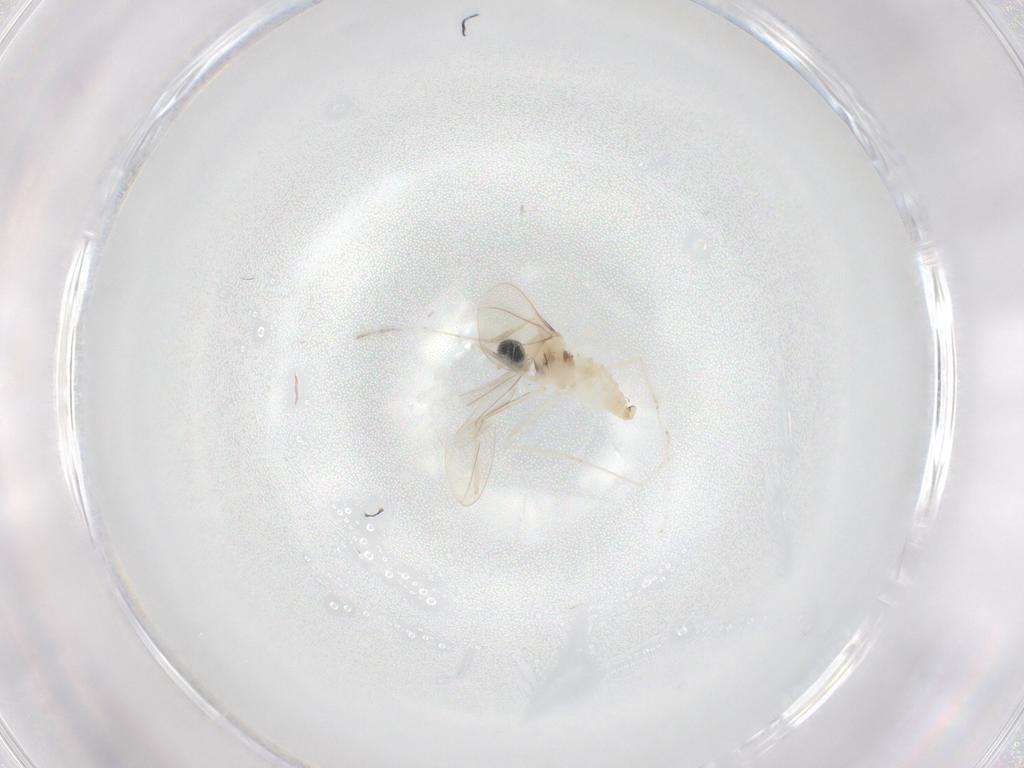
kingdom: Animalia
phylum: Arthropoda
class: Insecta
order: Diptera
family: Cecidomyiidae
